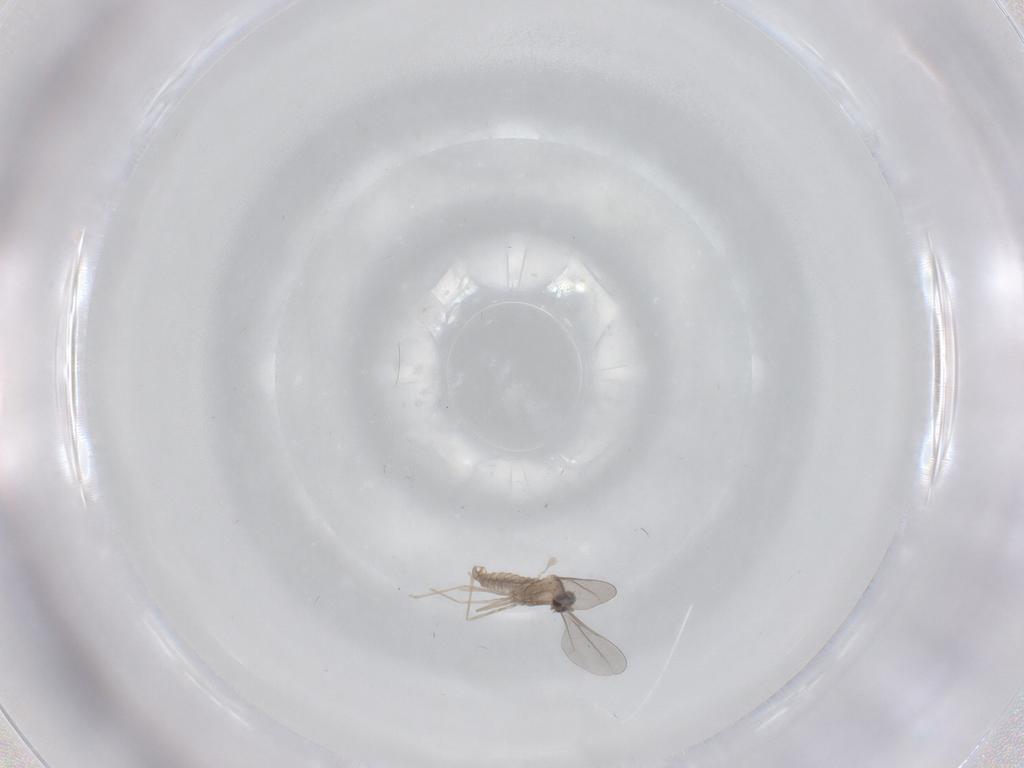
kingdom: Animalia
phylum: Arthropoda
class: Insecta
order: Diptera
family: Cecidomyiidae
